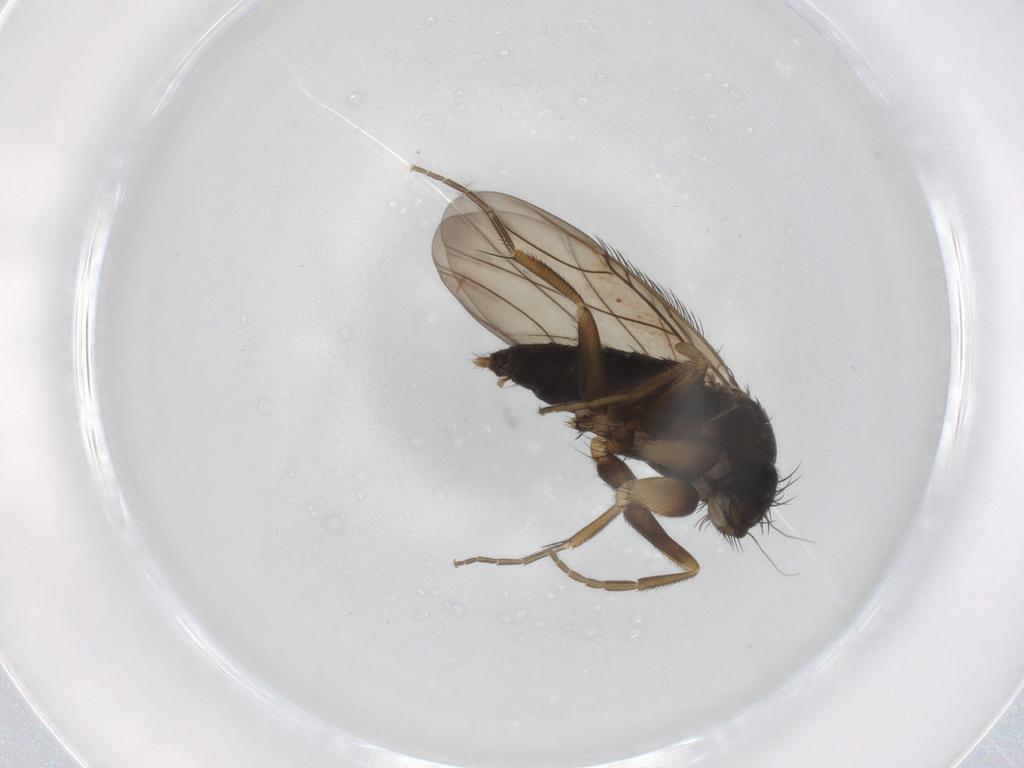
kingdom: Animalia
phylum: Arthropoda
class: Insecta
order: Diptera
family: Phoridae
